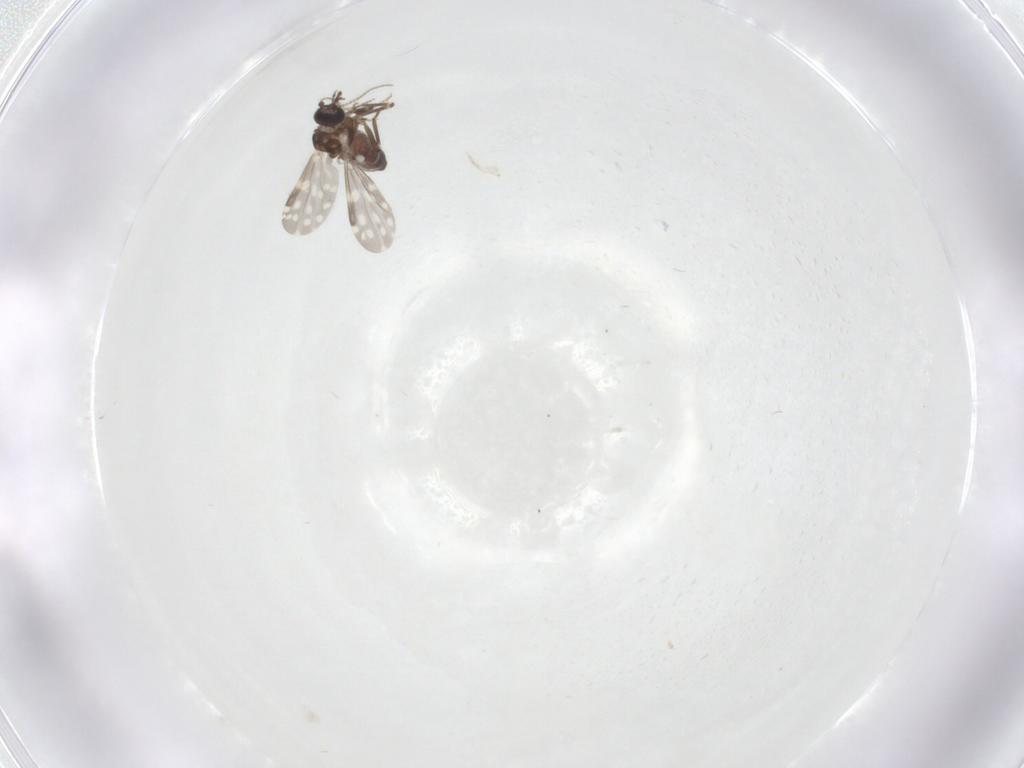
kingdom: Animalia
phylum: Arthropoda
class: Insecta
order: Diptera
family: Ceratopogonidae
